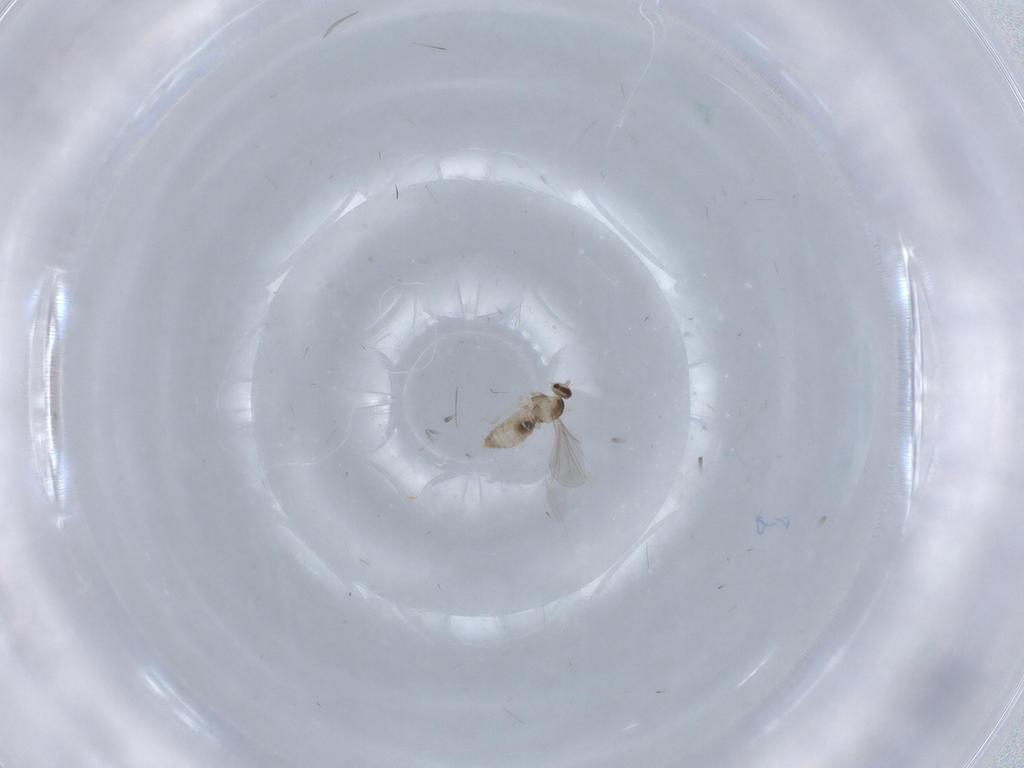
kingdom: Animalia
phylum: Arthropoda
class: Insecta
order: Diptera
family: Cecidomyiidae
